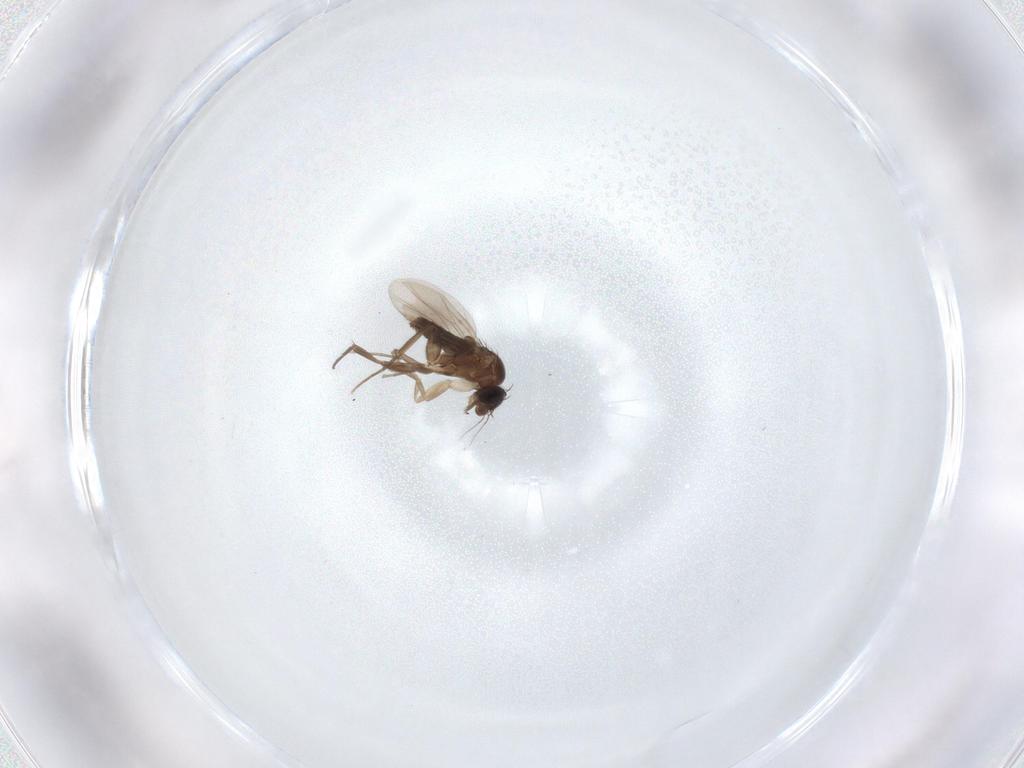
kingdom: Animalia
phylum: Arthropoda
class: Insecta
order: Diptera
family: Phoridae
